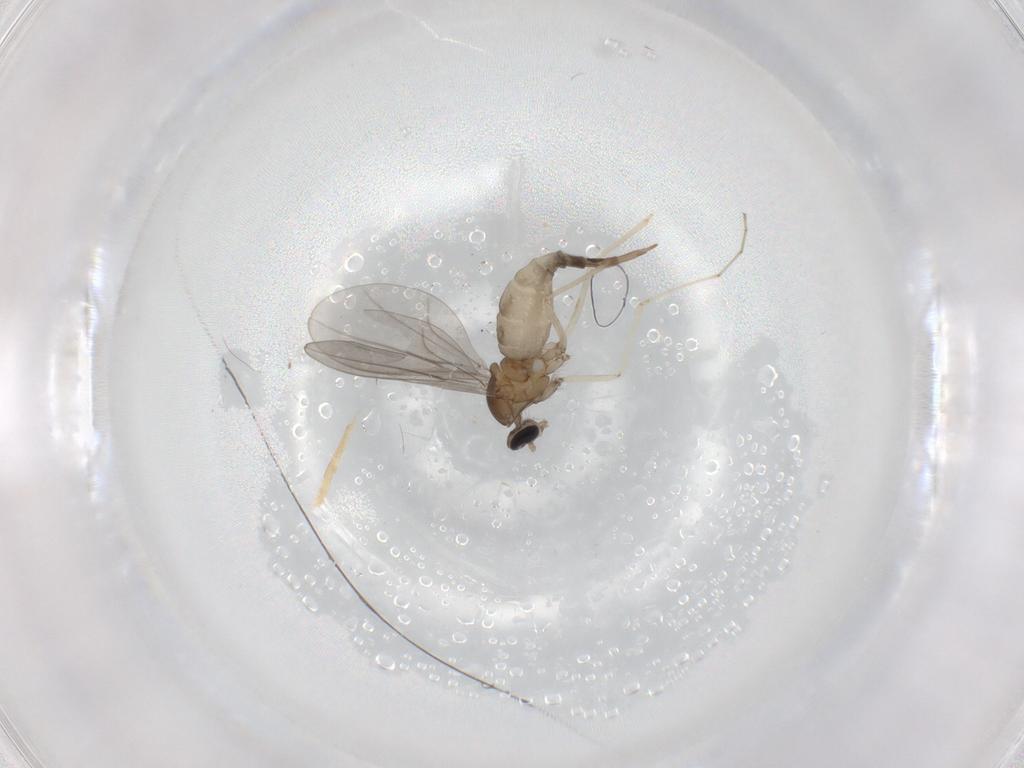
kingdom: Animalia
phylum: Arthropoda
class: Insecta
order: Diptera
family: Cecidomyiidae
